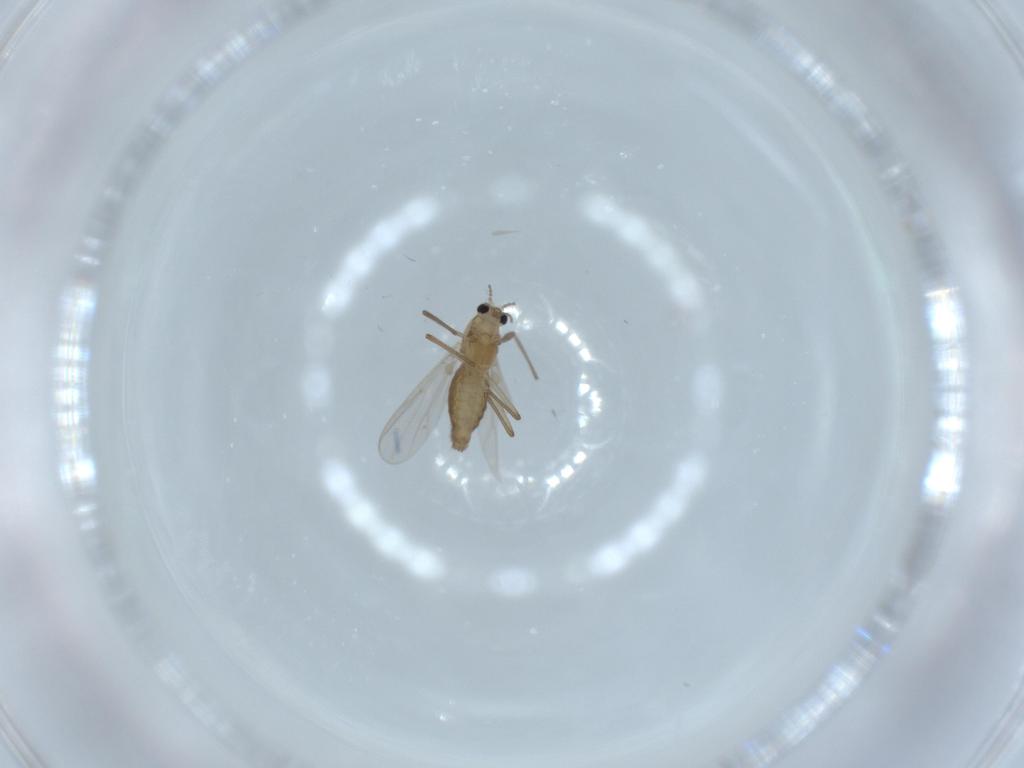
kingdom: Animalia
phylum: Arthropoda
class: Insecta
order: Diptera
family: Chironomidae
